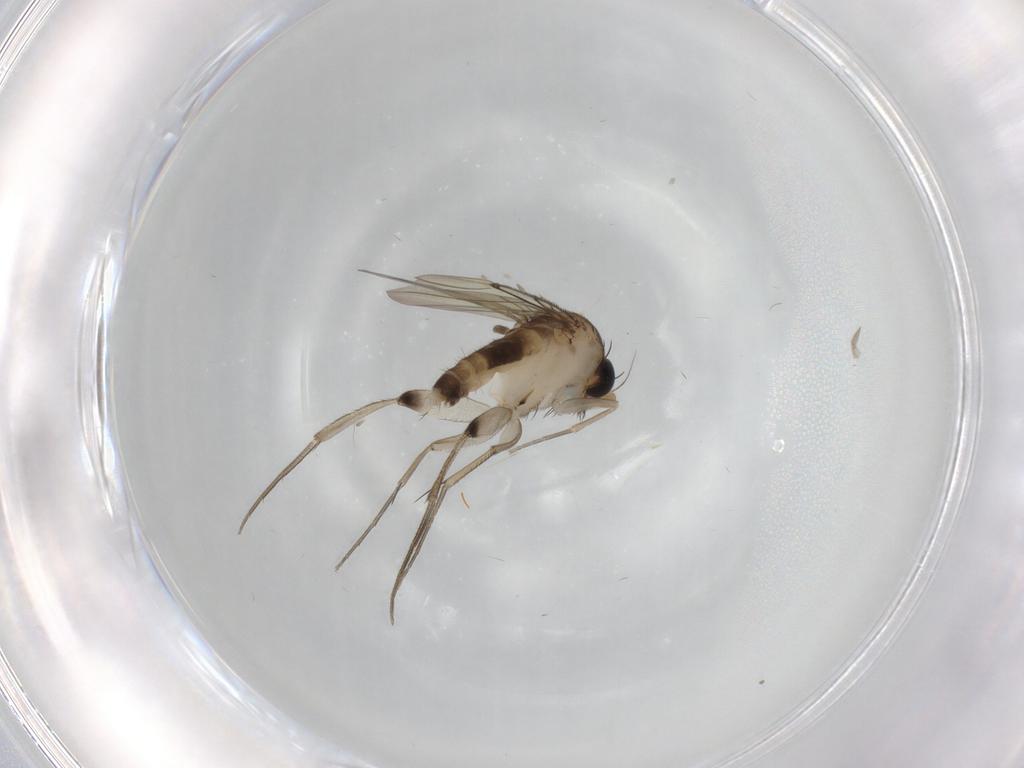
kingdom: Animalia
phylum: Arthropoda
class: Insecta
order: Diptera
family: Phoridae
